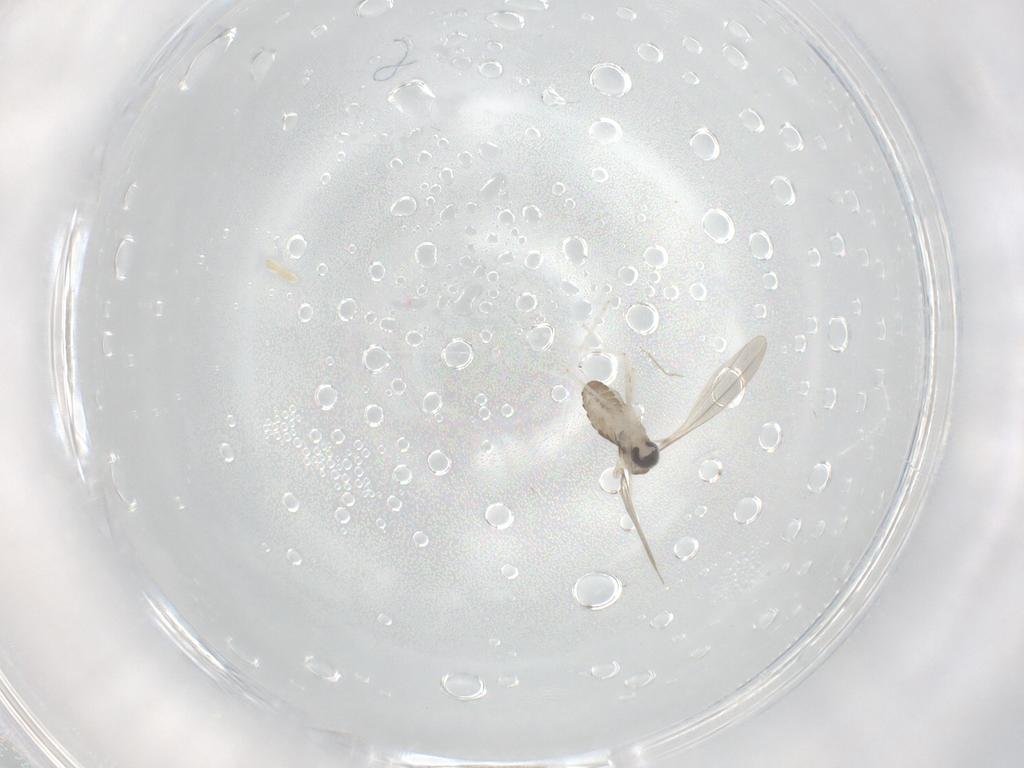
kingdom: Animalia
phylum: Arthropoda
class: Insecta
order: Diptera
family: Cecidomyiidae
